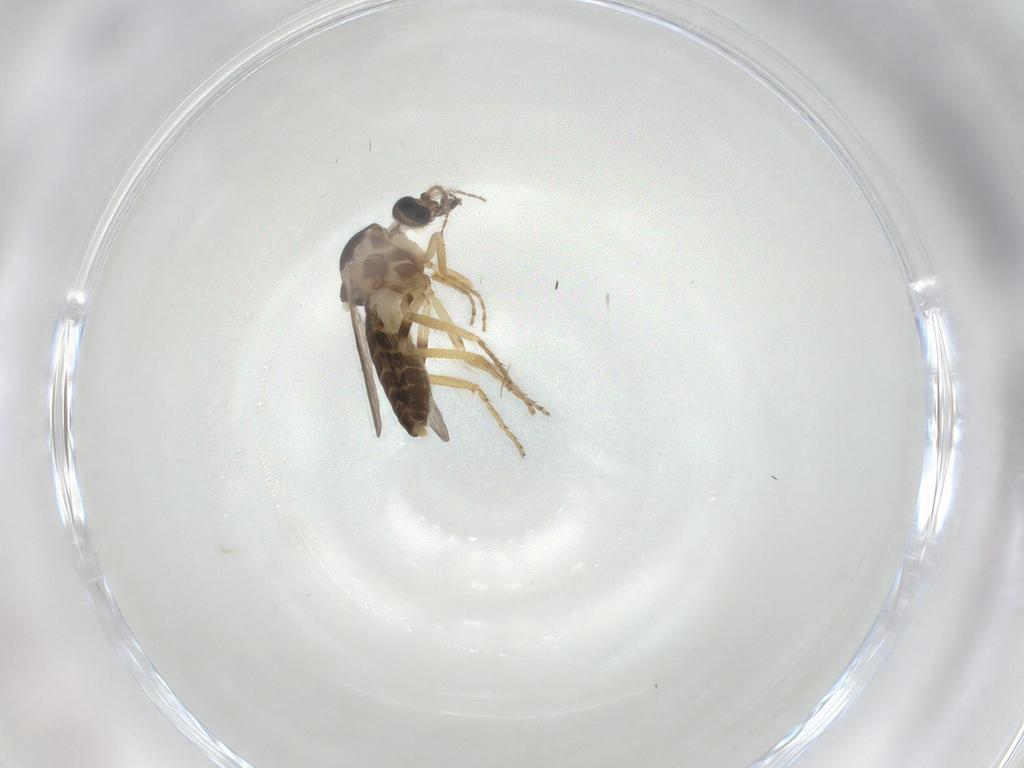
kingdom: Animalia
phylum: Arthropoda
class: Insecta
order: Diptera
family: Ceratopogonidae
